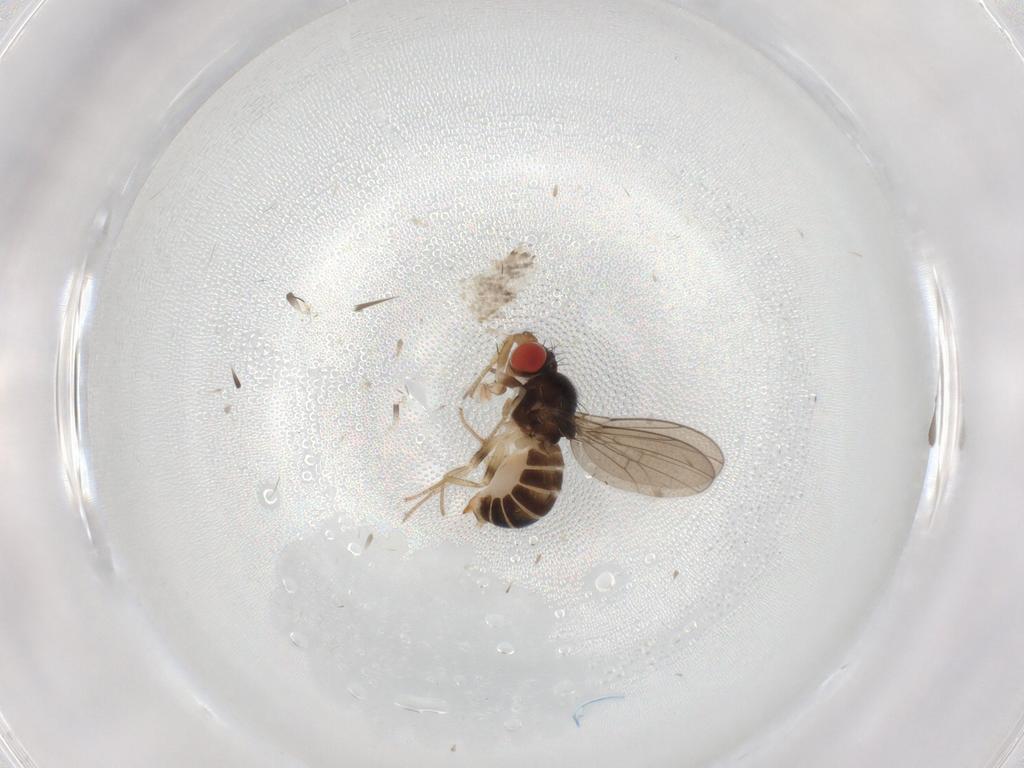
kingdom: Animalia
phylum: Arthropoda
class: Insecta
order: Diptera
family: Drosophilidae
